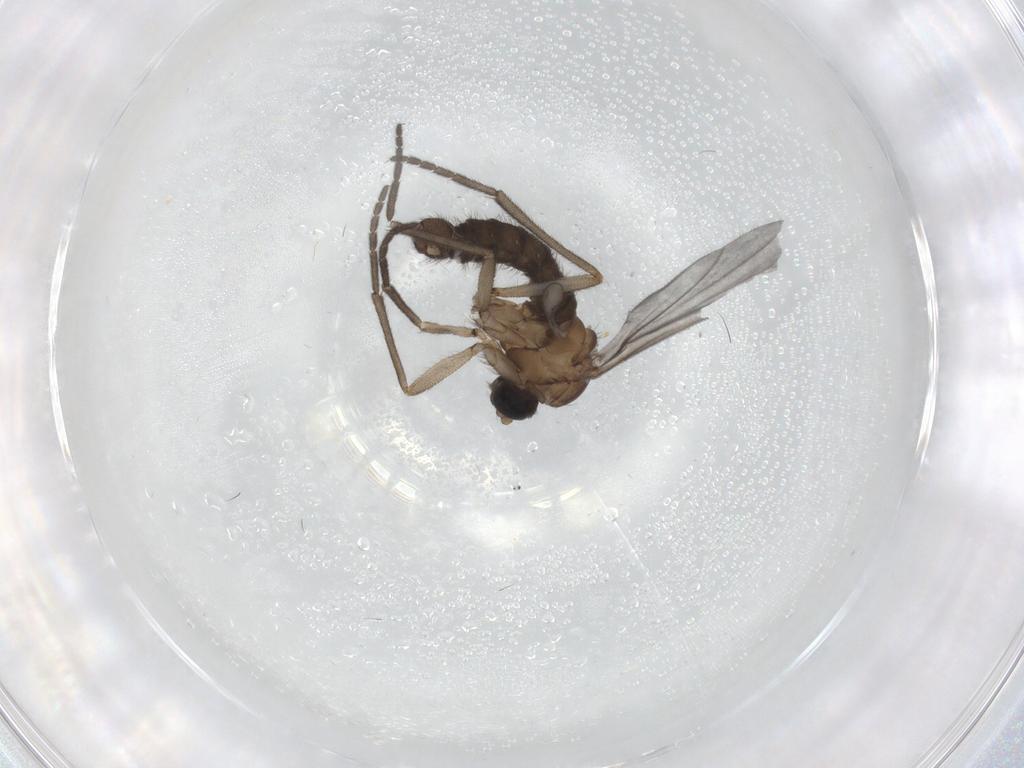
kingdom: Animalia
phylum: Arthropoda
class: Insecta
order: Diptera
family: Sciaridae
